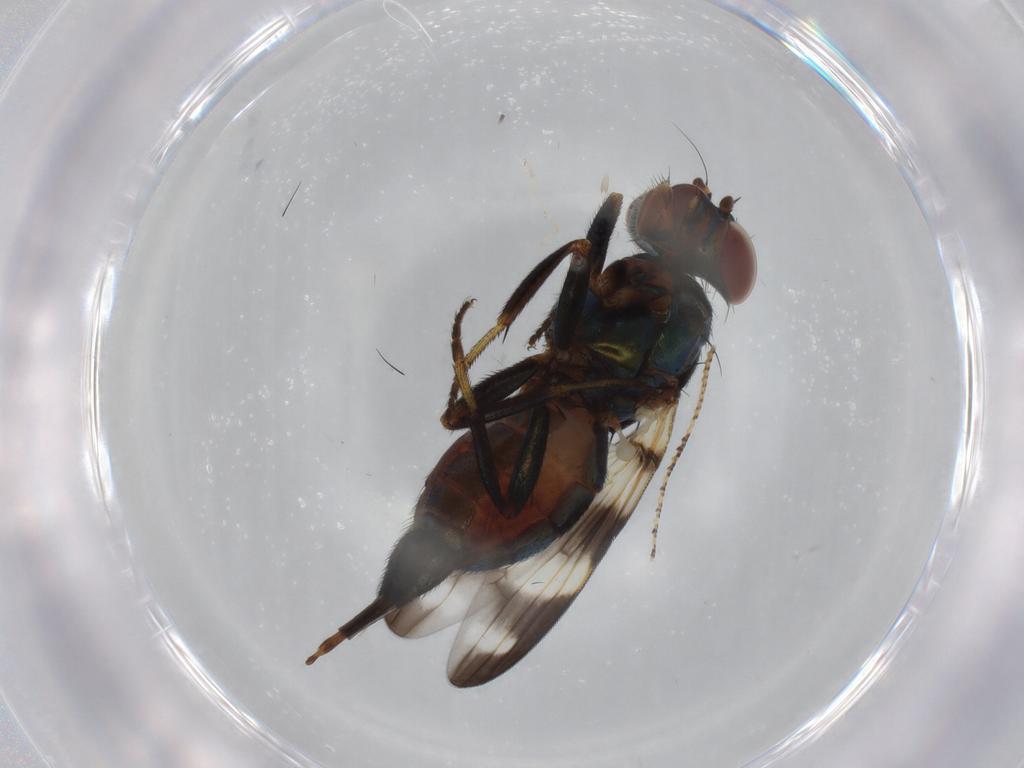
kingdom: Animalia
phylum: Arthropoda
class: Insecta
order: Diptera
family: Ulidiidae
